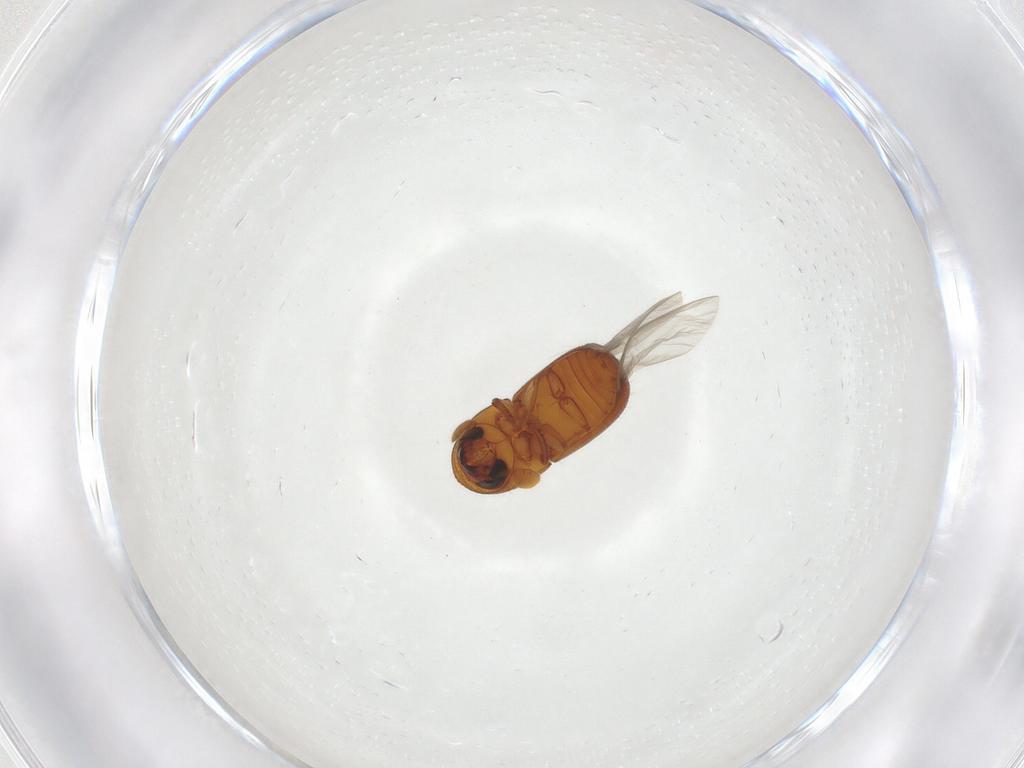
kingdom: Animalia
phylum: Arthropoda
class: Insecta
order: Coleoptera
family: Curculionidae
